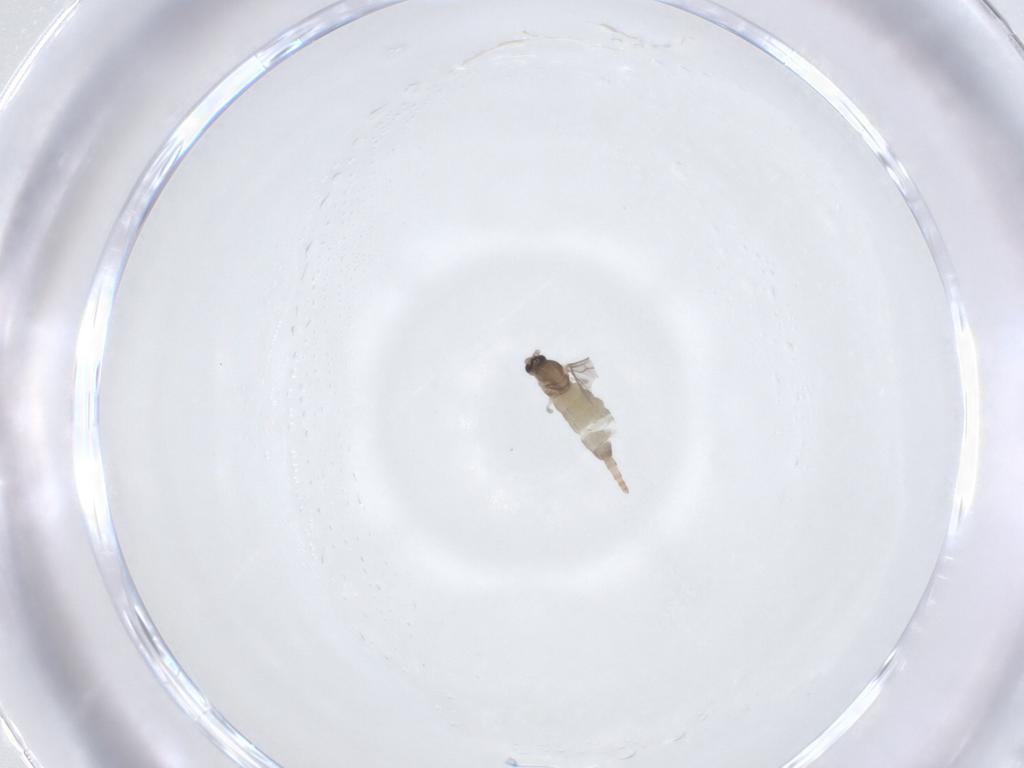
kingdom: Animalia
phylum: Arthropoda
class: Insecta
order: Diptera
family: Cecidomyiidae
